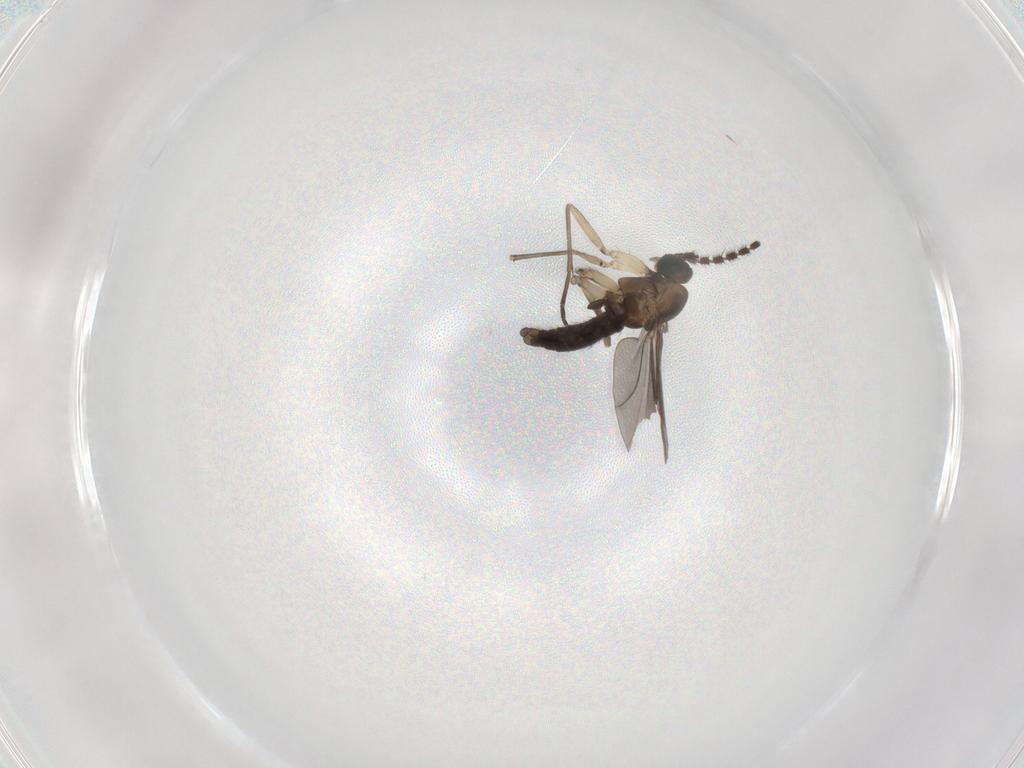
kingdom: Animalia
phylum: Arthropoda
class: Insecta
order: Diptera
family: Sciaridae
